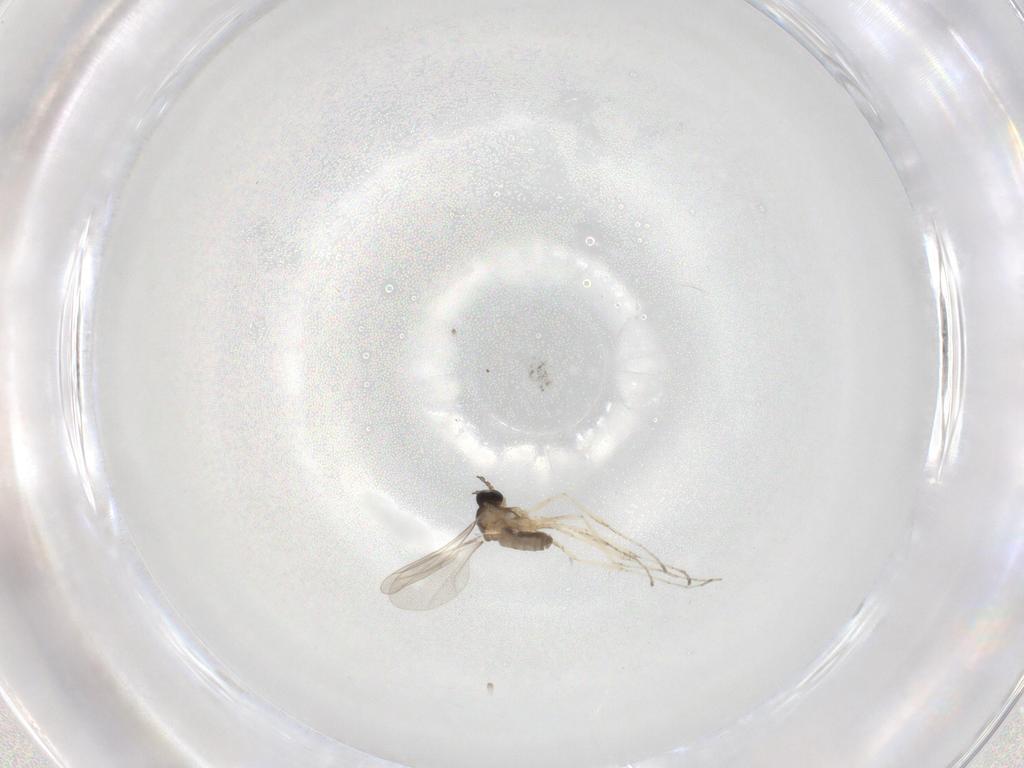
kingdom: Animalia
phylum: Arthropoda
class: Insecta
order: Diptera
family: Cecidomyiidae
